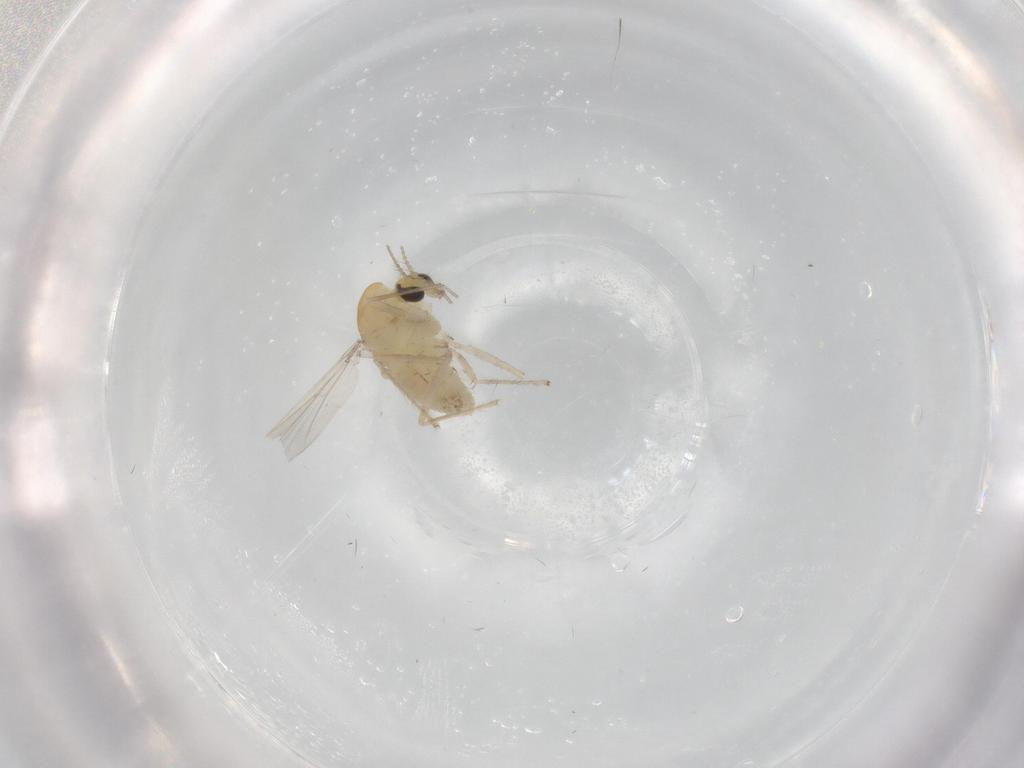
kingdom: Animalia
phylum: Arthropoda
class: Insecta
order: Diptera
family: Chironomidae
